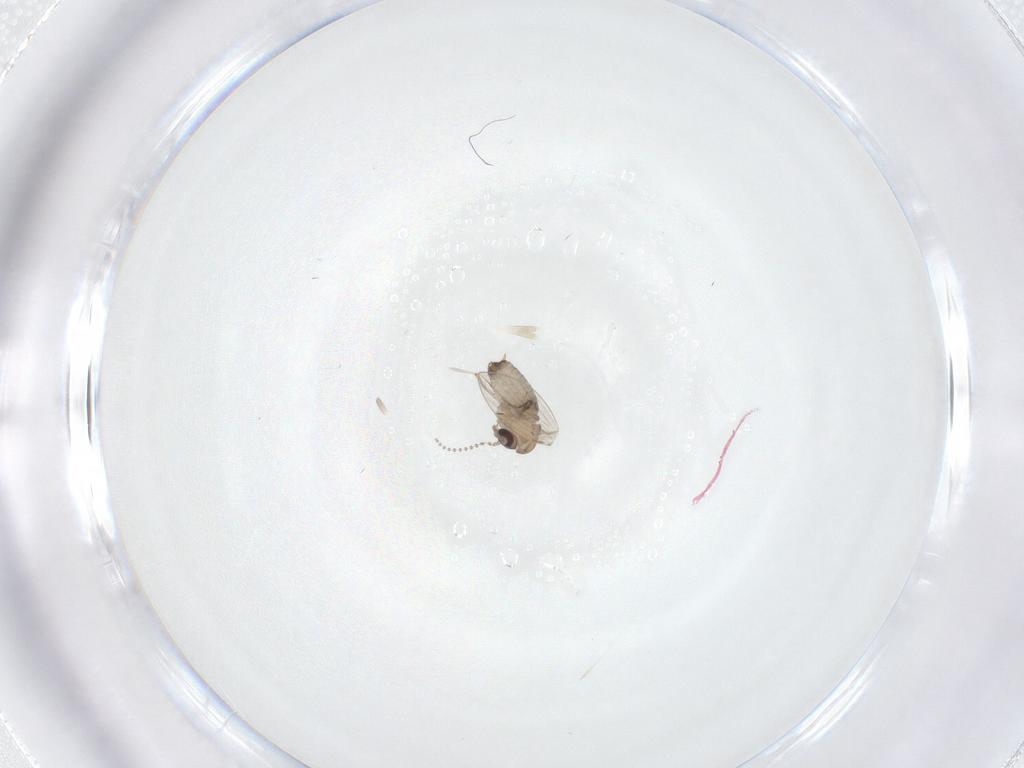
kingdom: Animalia
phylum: Arthropoda
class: Insecta
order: Diptera
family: Psychodidae
